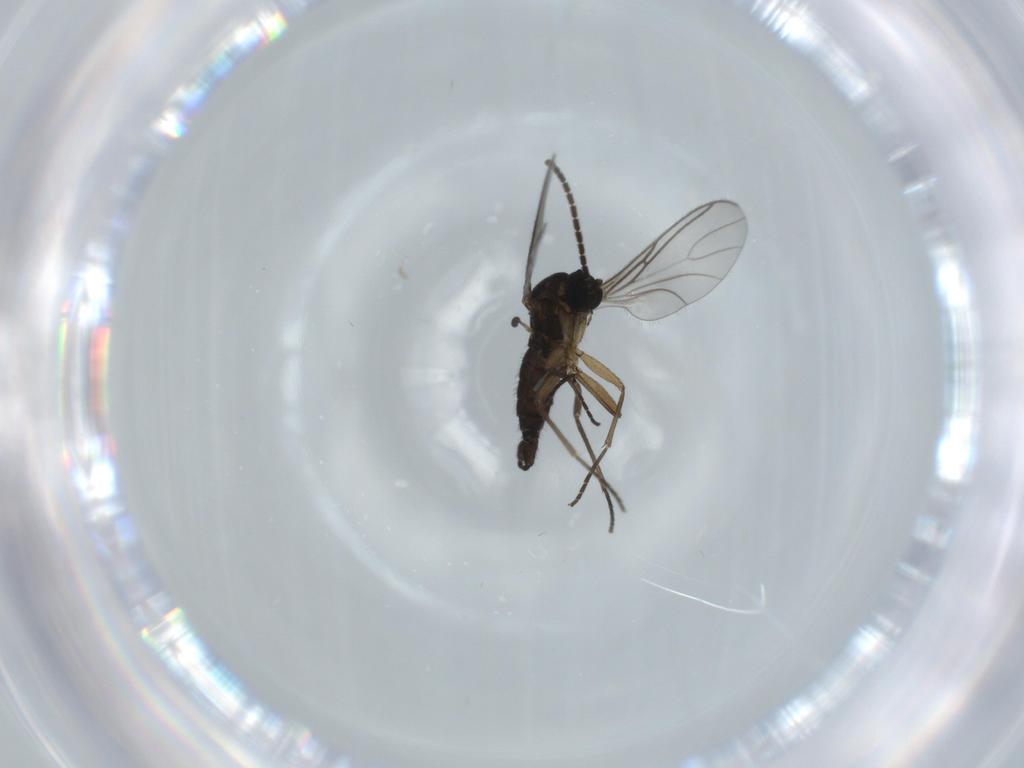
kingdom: Animalia
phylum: Arthropoda
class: Insecta
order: Diptera
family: Sciaridae
